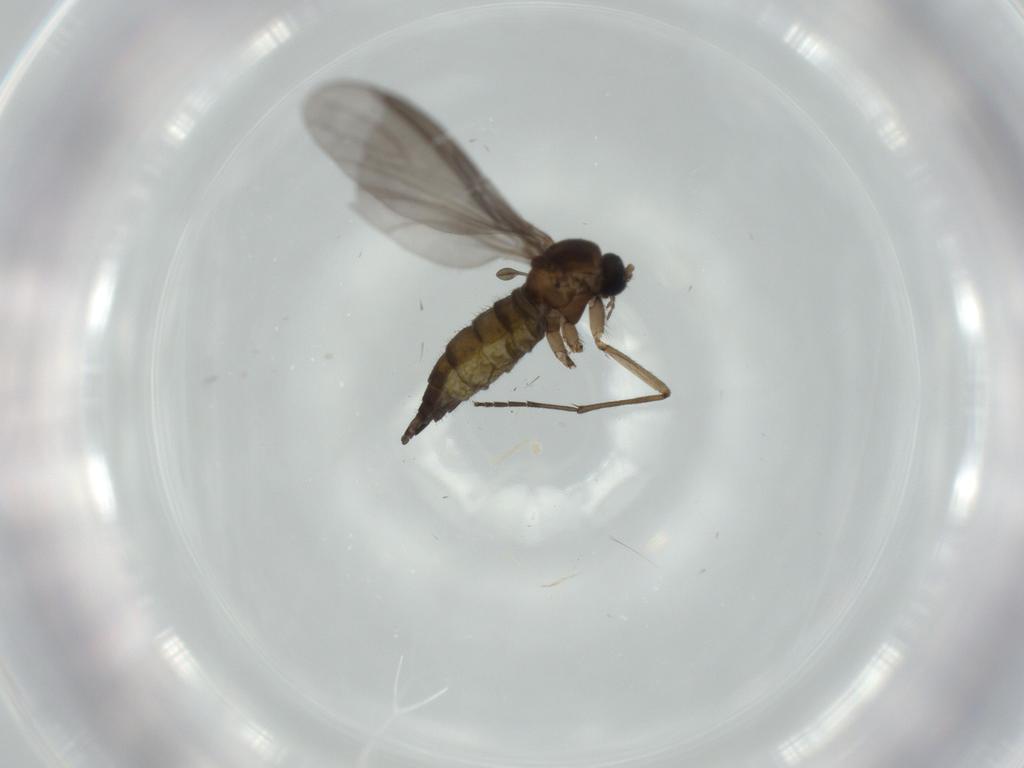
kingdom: Animalia
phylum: Arthropoda
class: Insecta
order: Diptera
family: Sciaridae
